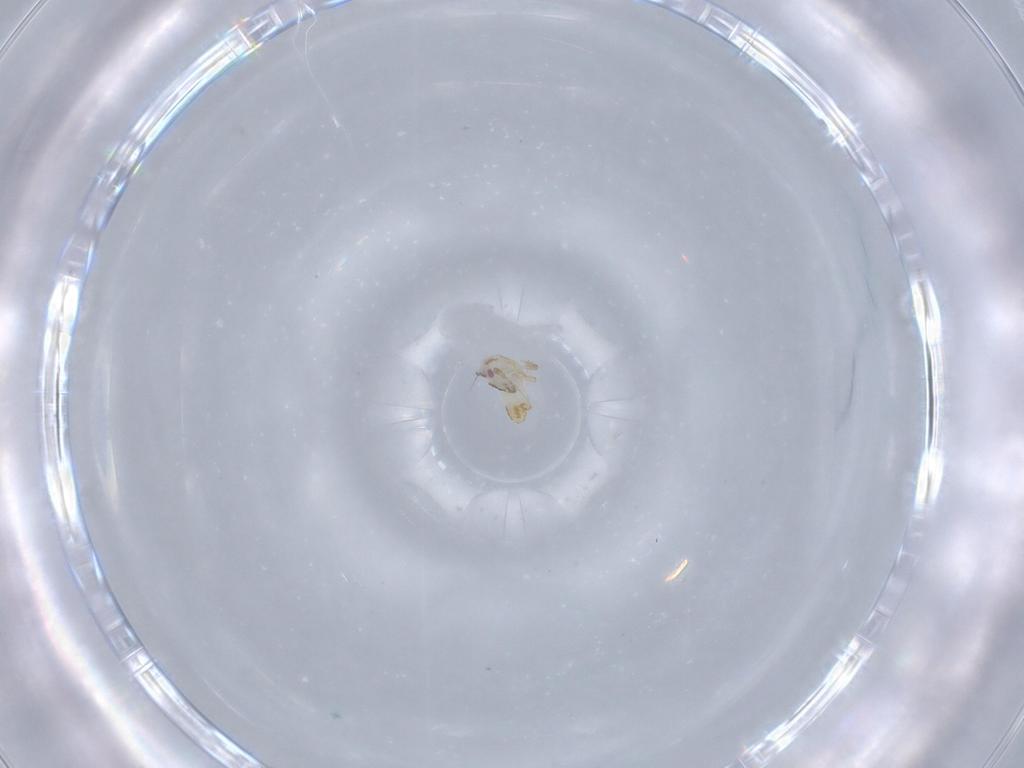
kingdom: Animalia
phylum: Arthropoda
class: Insecta
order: Hemiptera
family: Delphacidae
